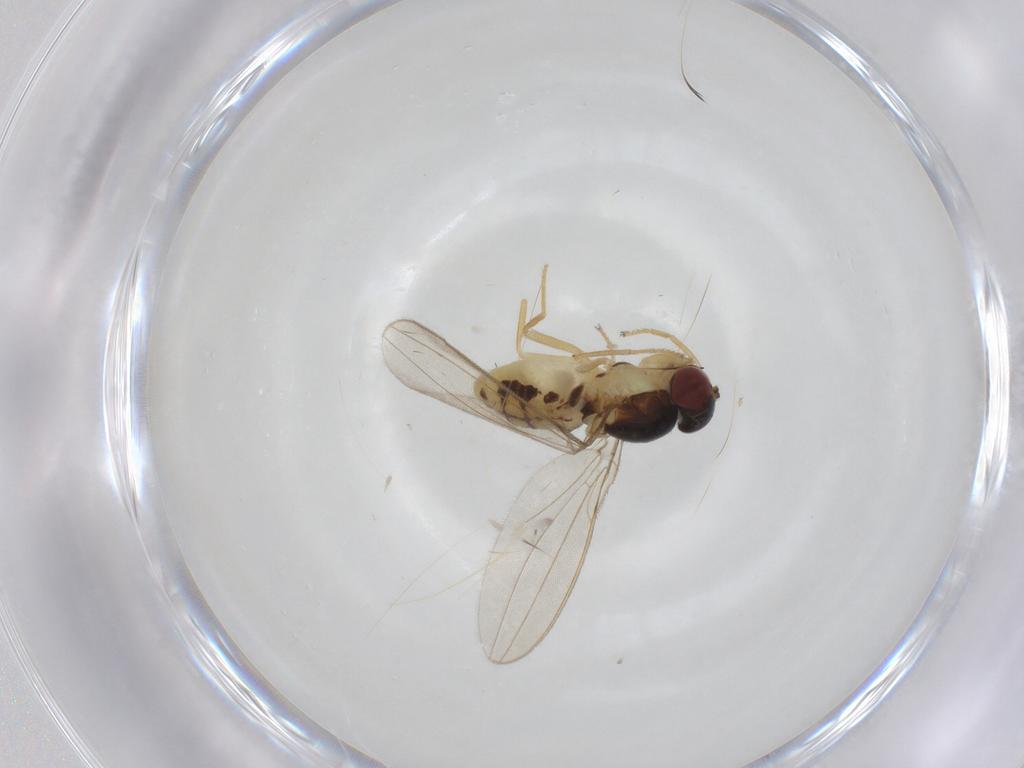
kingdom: Animalia
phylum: Arthropoda
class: Insecta
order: Diptera
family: Asteiidae
